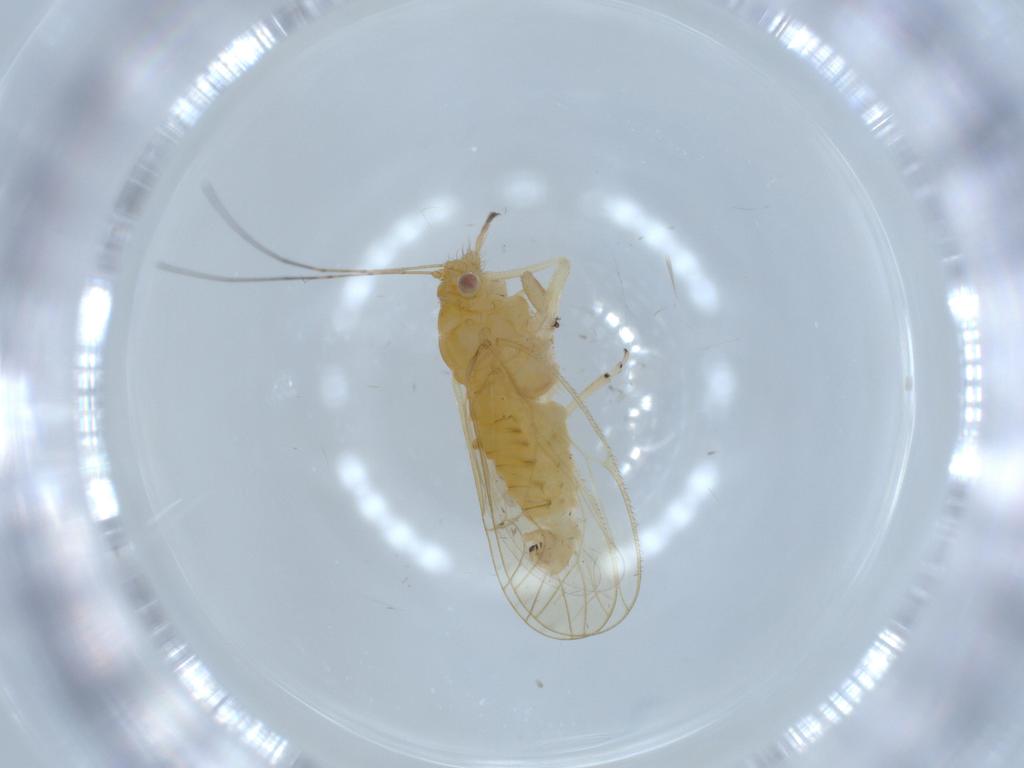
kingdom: Animalia
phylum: Arthropoda
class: Insecta
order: Hemiptera
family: Psyllidae
